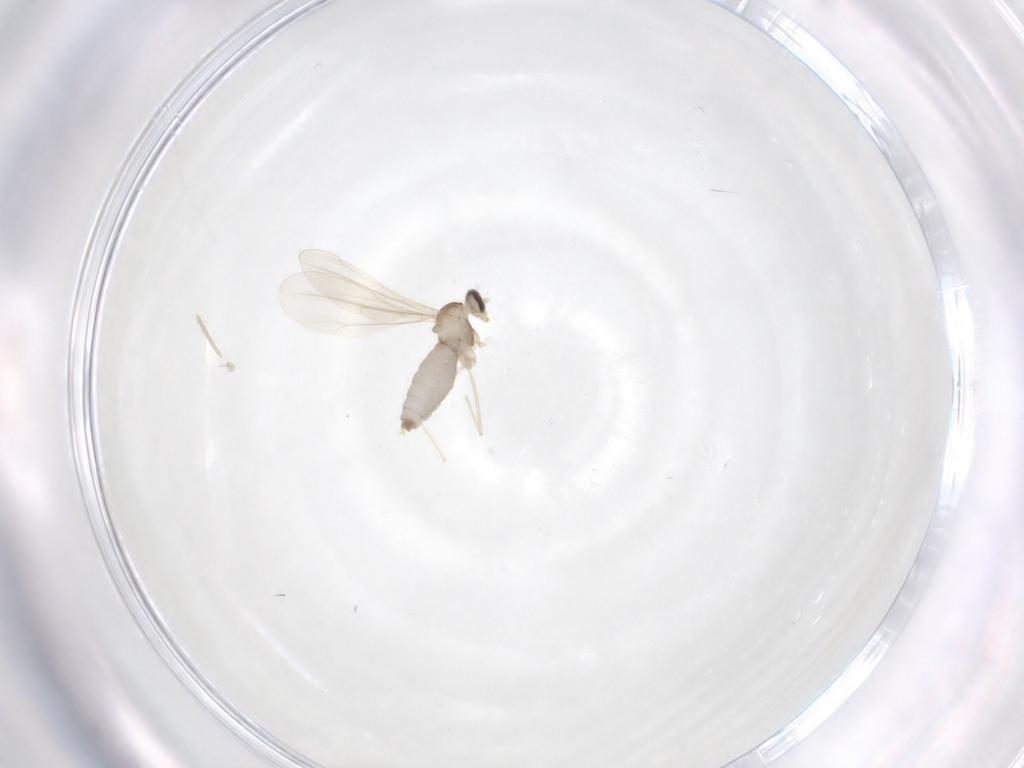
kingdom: Animalia
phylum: Arthropoda
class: Insecta
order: Diptera
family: Cecidomyiidae
